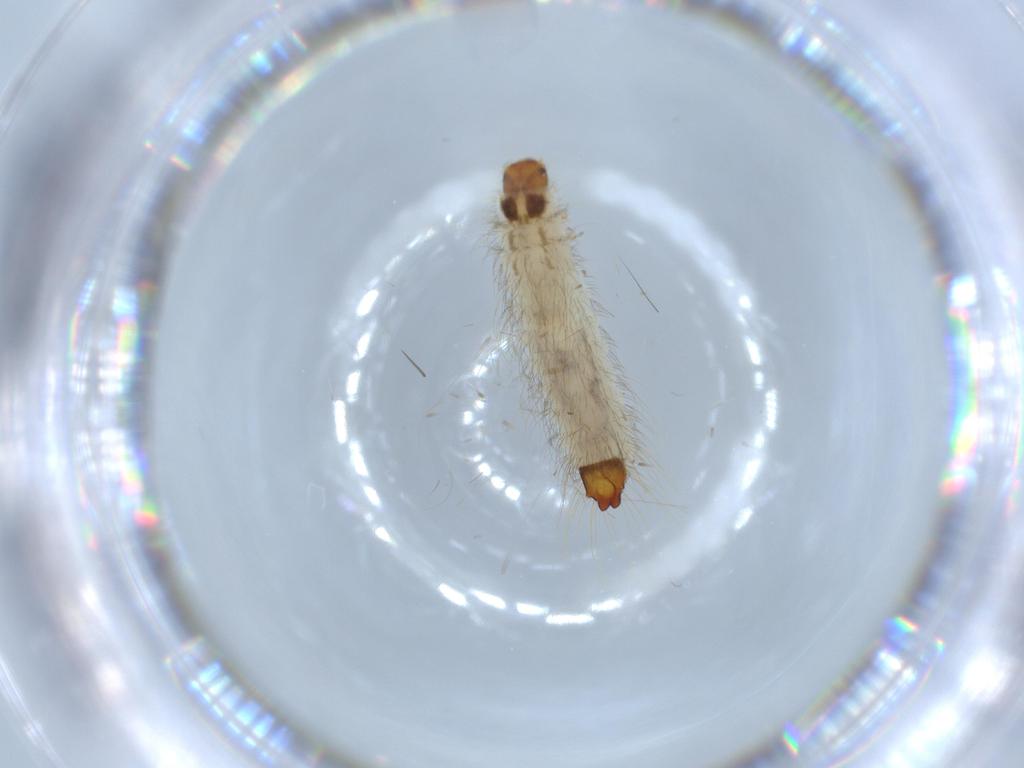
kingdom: Animalia
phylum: Arthropoda
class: Insecta
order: Coleoptera
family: Rhadalidae
